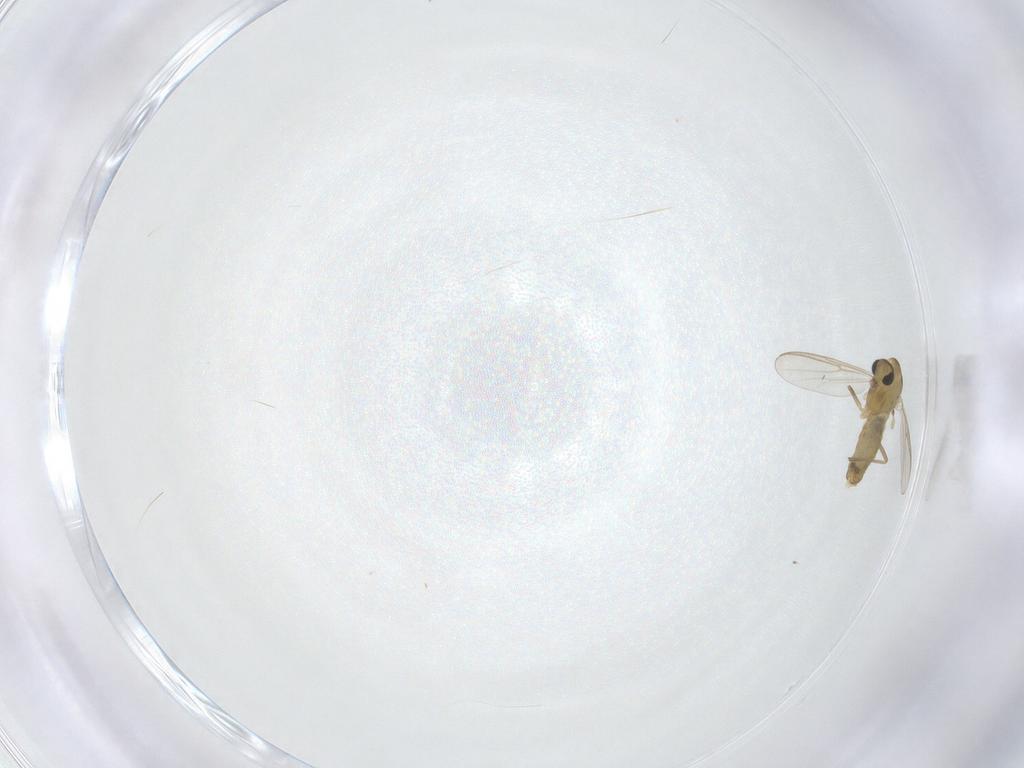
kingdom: Animalia
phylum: Arthropoda
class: Insecta
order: Diptera
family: Chironomidae
